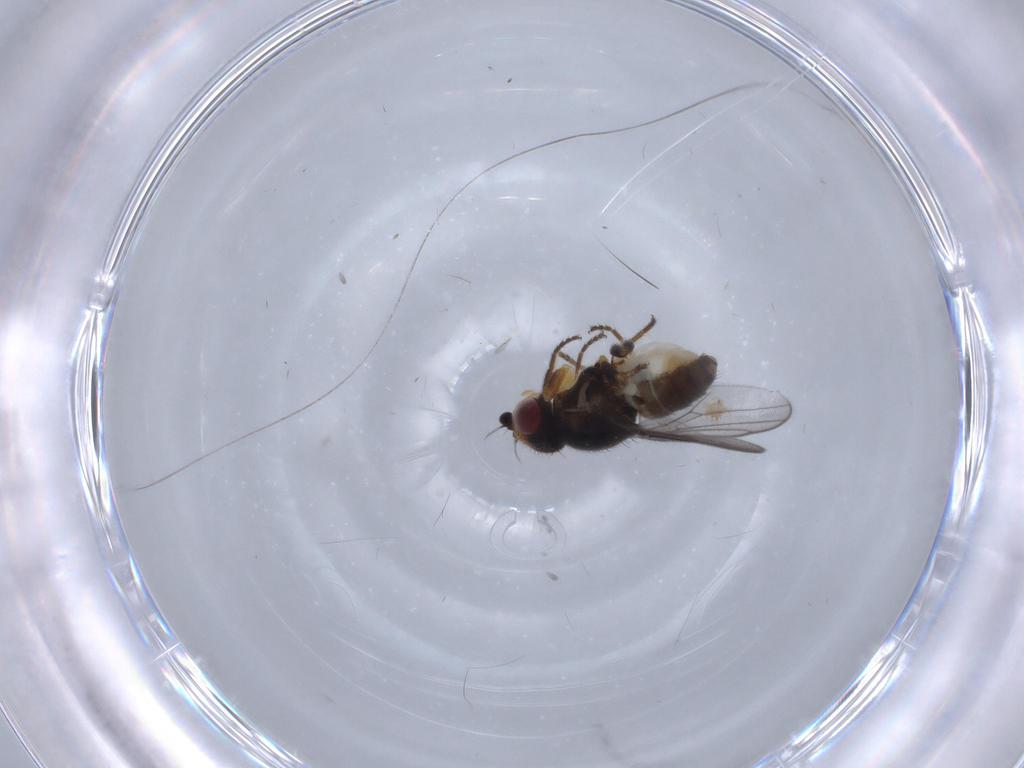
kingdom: Animalia
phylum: Arthropoda
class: Insecta
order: Diptera
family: Chloropidae
